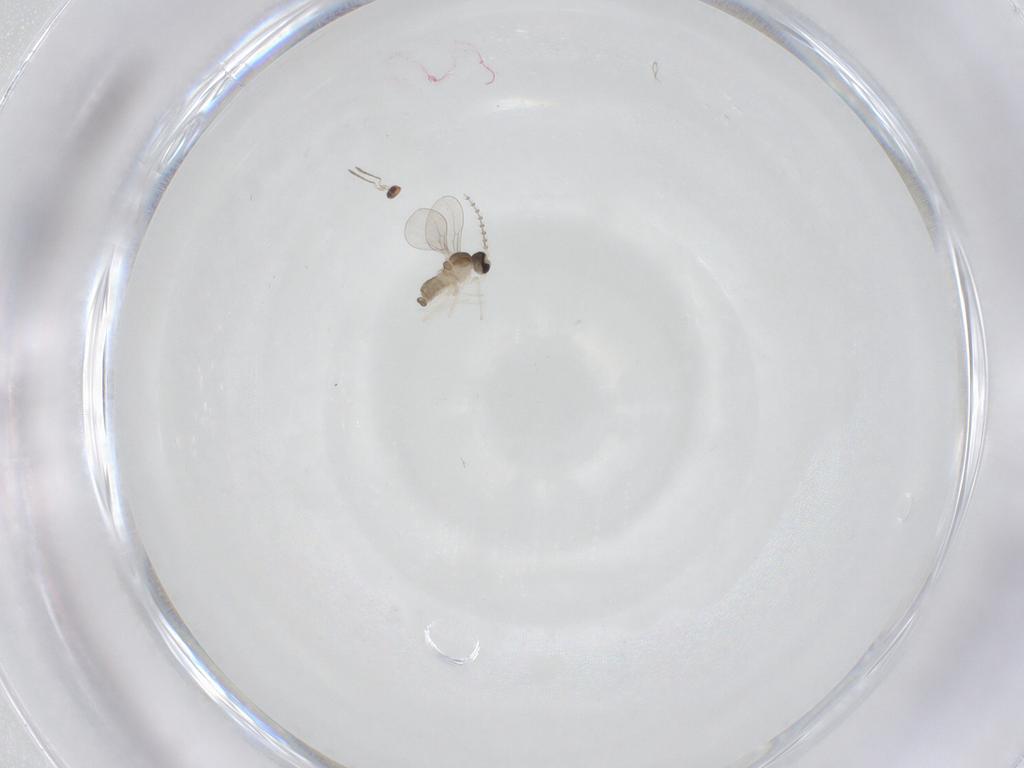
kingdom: Animalia
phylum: Arthropoda
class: Insecta
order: Diptera
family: Cecidomyiidae
